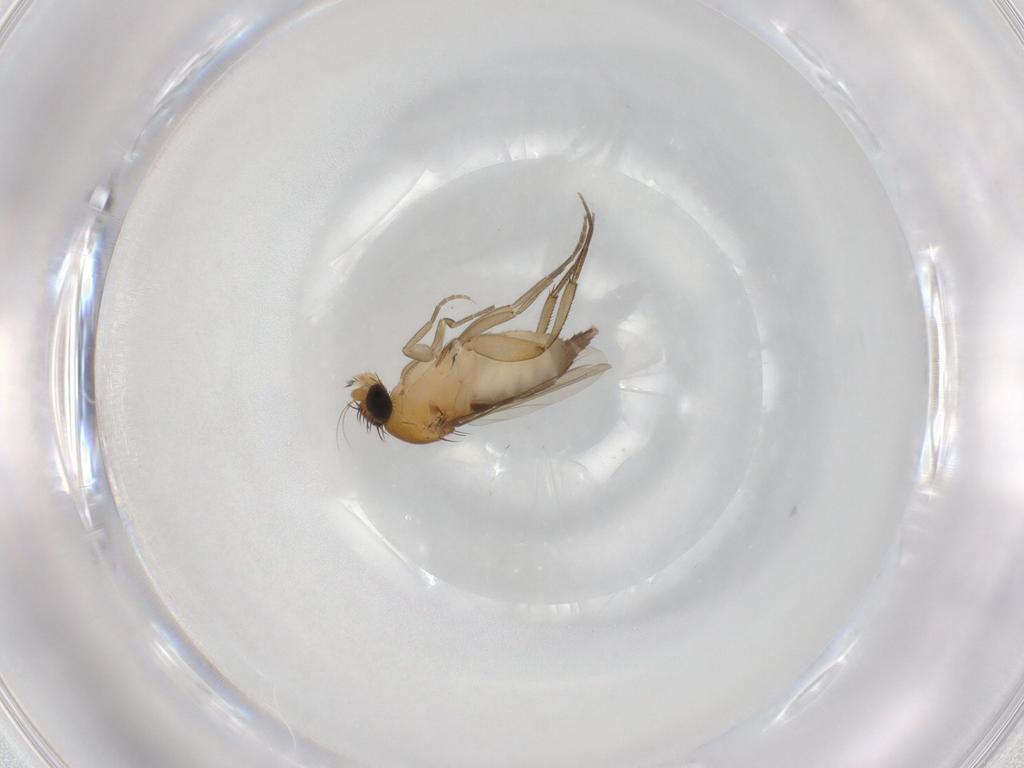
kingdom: Animalia
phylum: Arthropoda
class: Insecta
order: Diptera
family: Phoridae
